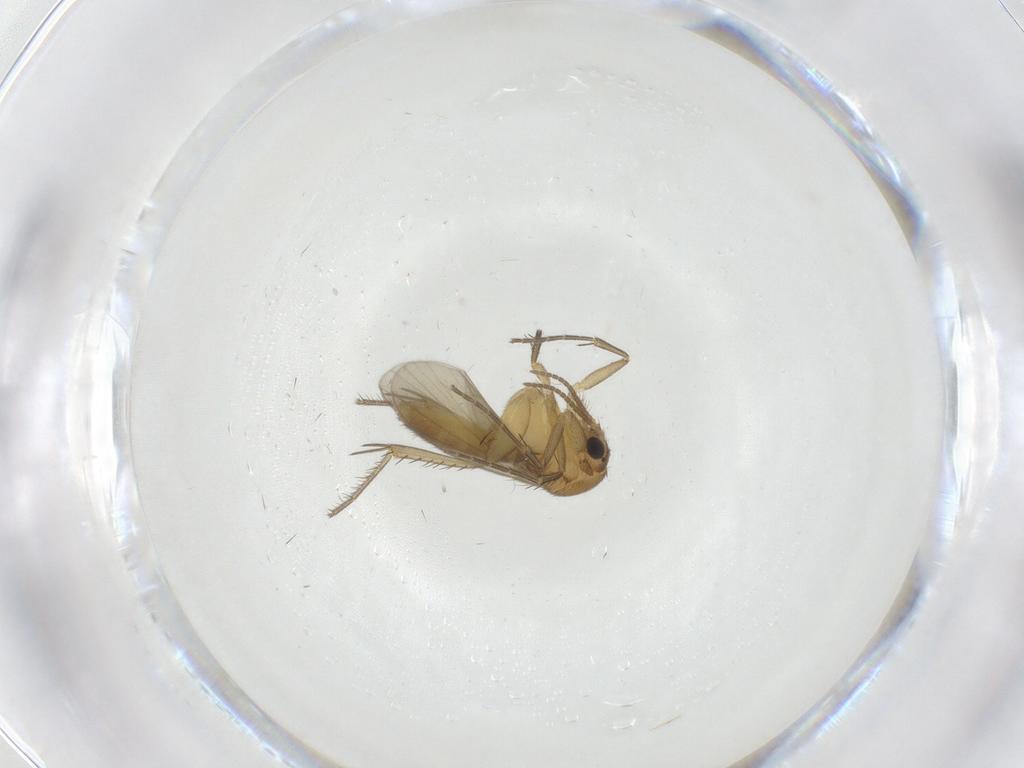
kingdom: Animalia
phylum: Arthropoda
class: Insecta
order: Diptera
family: Mycetophilidae
